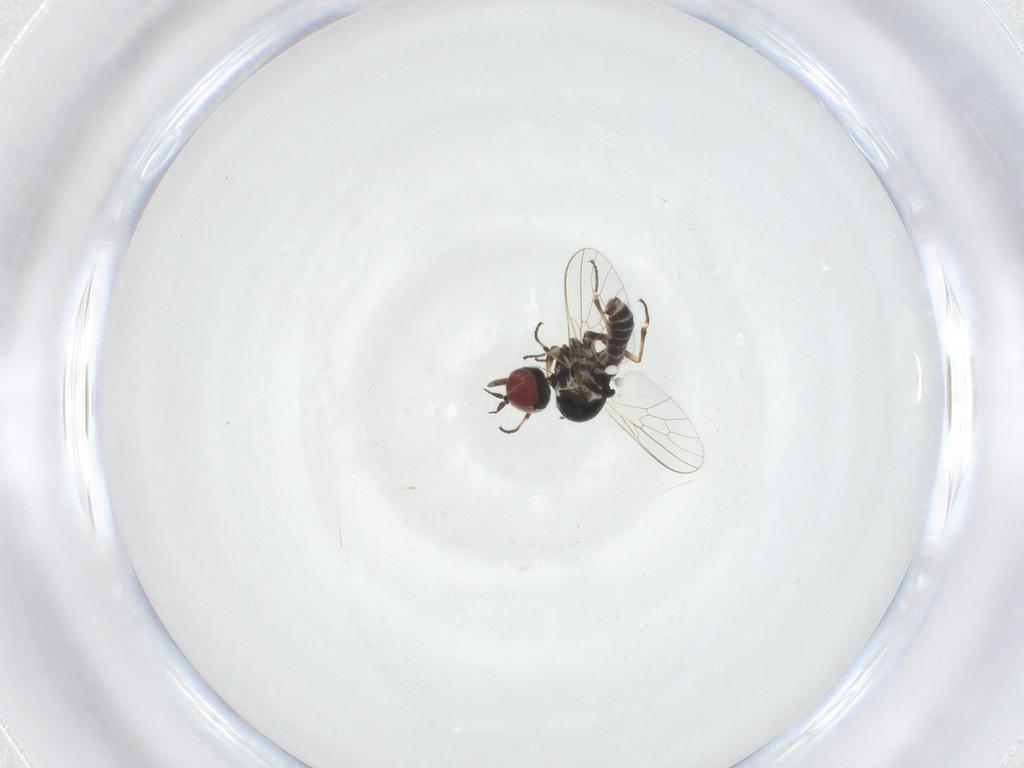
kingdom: Animalia
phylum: Arthropoda
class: Insecta
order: Diptera
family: Mythicomyiidae
